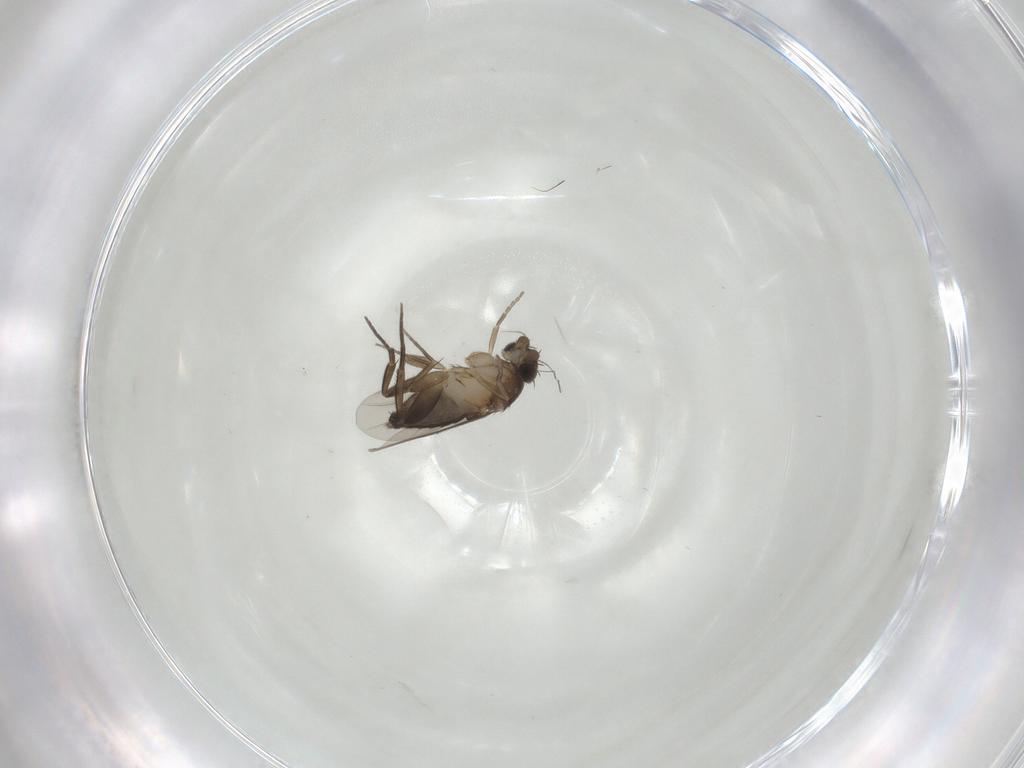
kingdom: Animalia
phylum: Arthropoda
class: Insecta
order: Diptera
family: Phoridae
